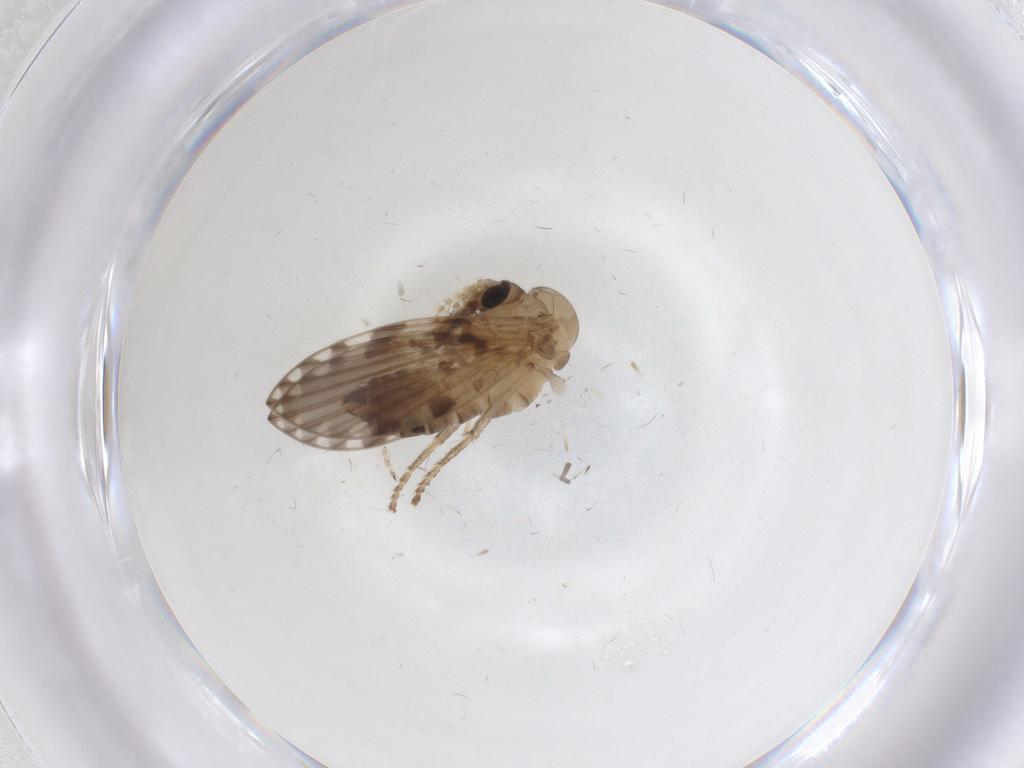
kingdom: Animalia
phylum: Arthropoda
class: Insecta
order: Diptera
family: Psychodidae
